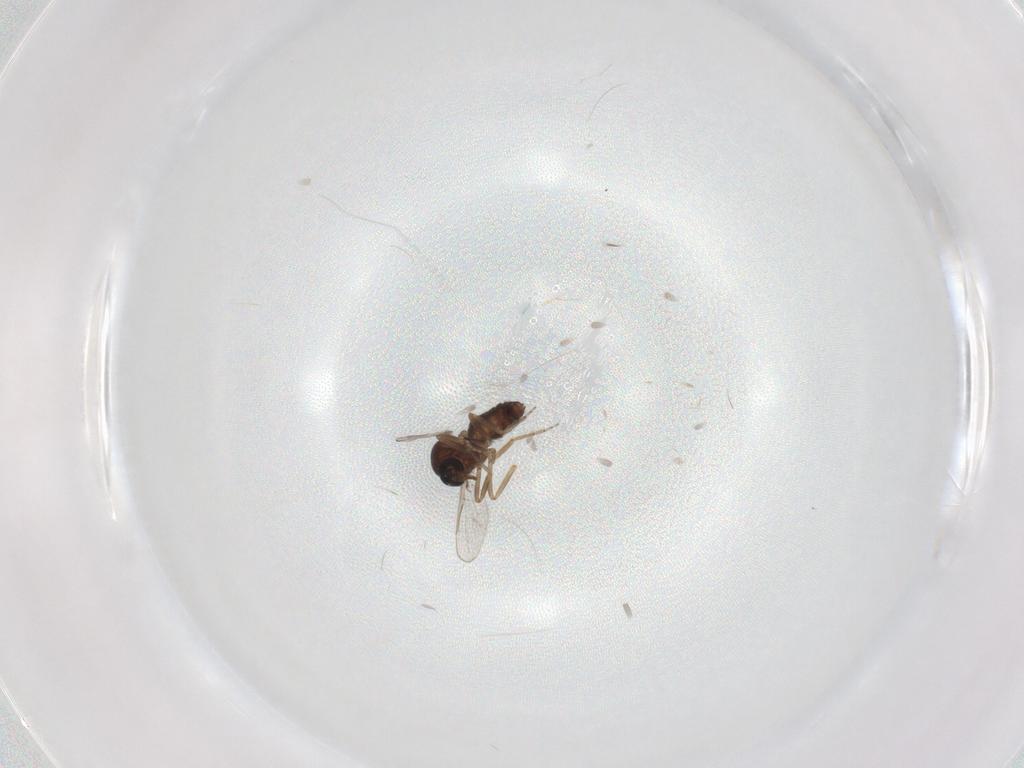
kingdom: Animalia
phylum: Arthropoda
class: Insecta
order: Diptera
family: Ceratopogonidae
